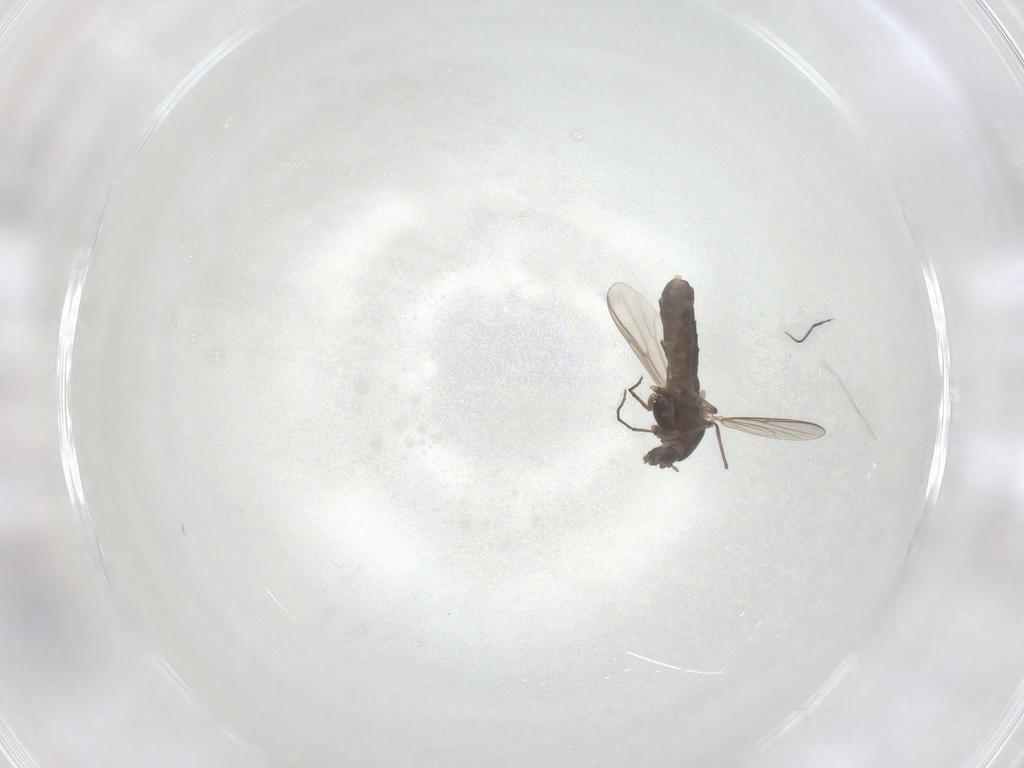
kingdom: Animalia
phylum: Arthropoda
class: Insecta
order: Diptera
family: Chironomidae
